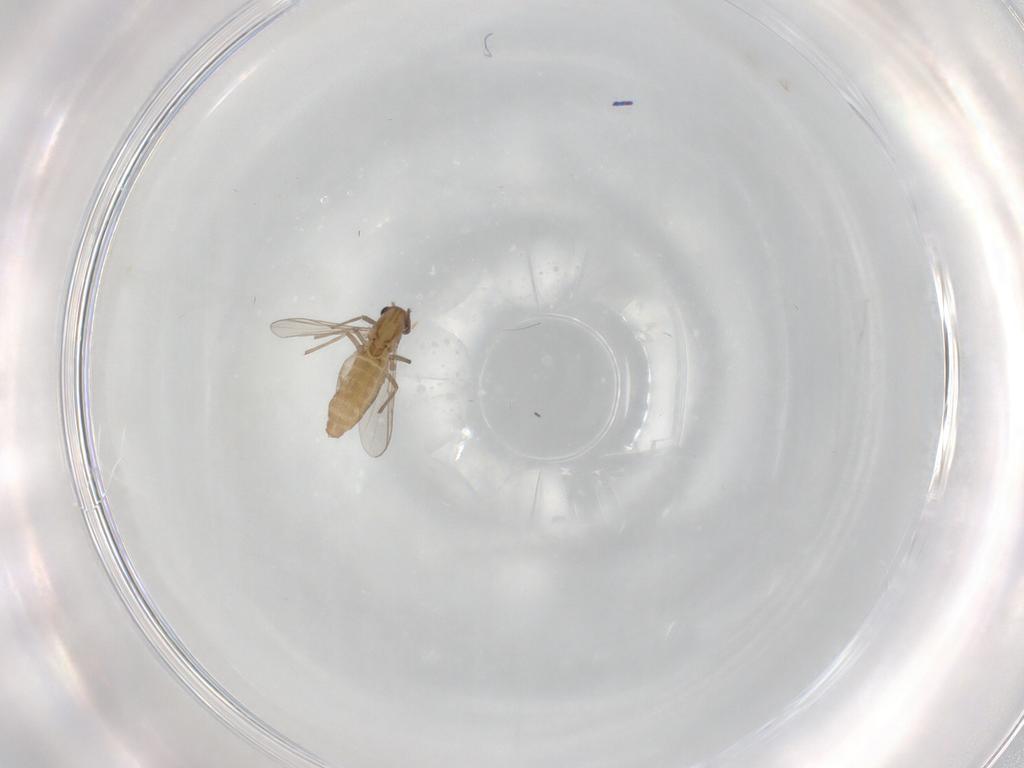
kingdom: Animalia
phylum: Arthropoda
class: Insecta
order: Diptera
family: Chironomidae
